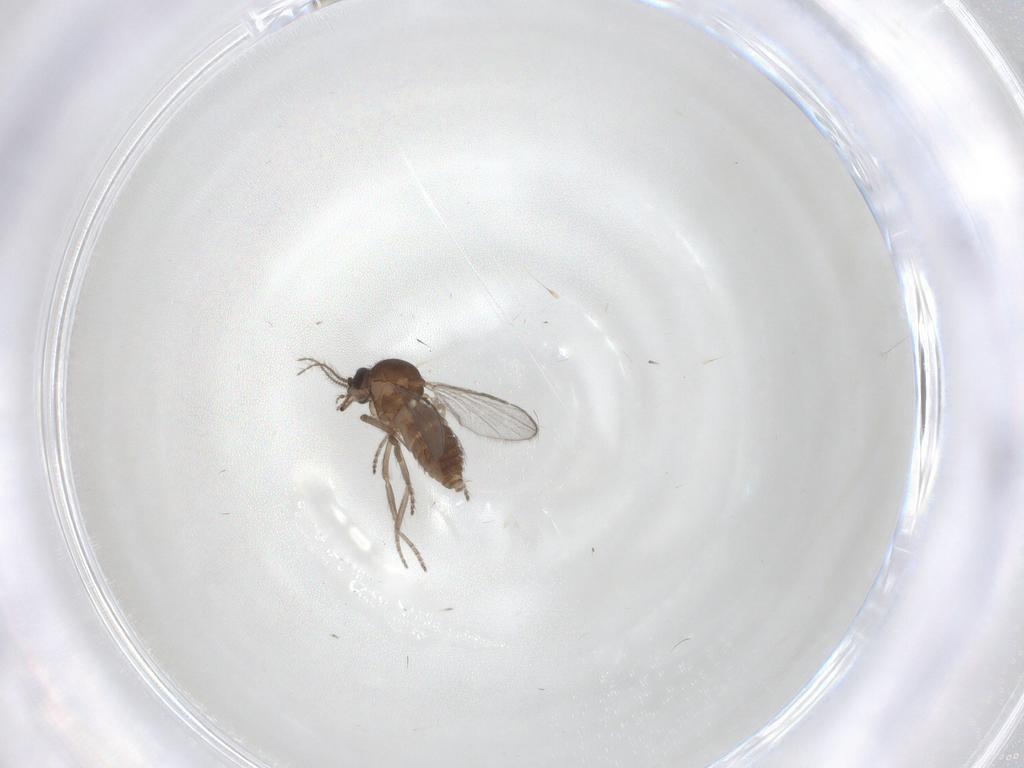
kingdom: Animalia
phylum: Arthropoda
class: Insecta
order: Diptera
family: Ceratopogonidae
